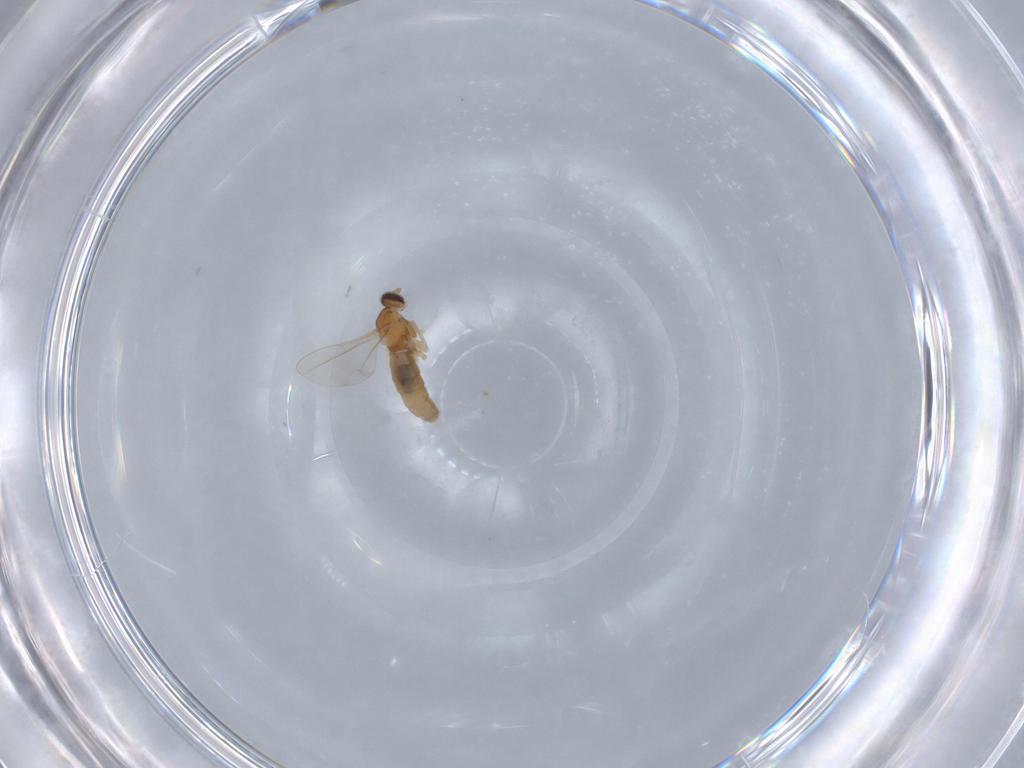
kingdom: Animalia
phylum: Arthropoda
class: Insecta
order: Diptera
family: Cecidomyiidae
